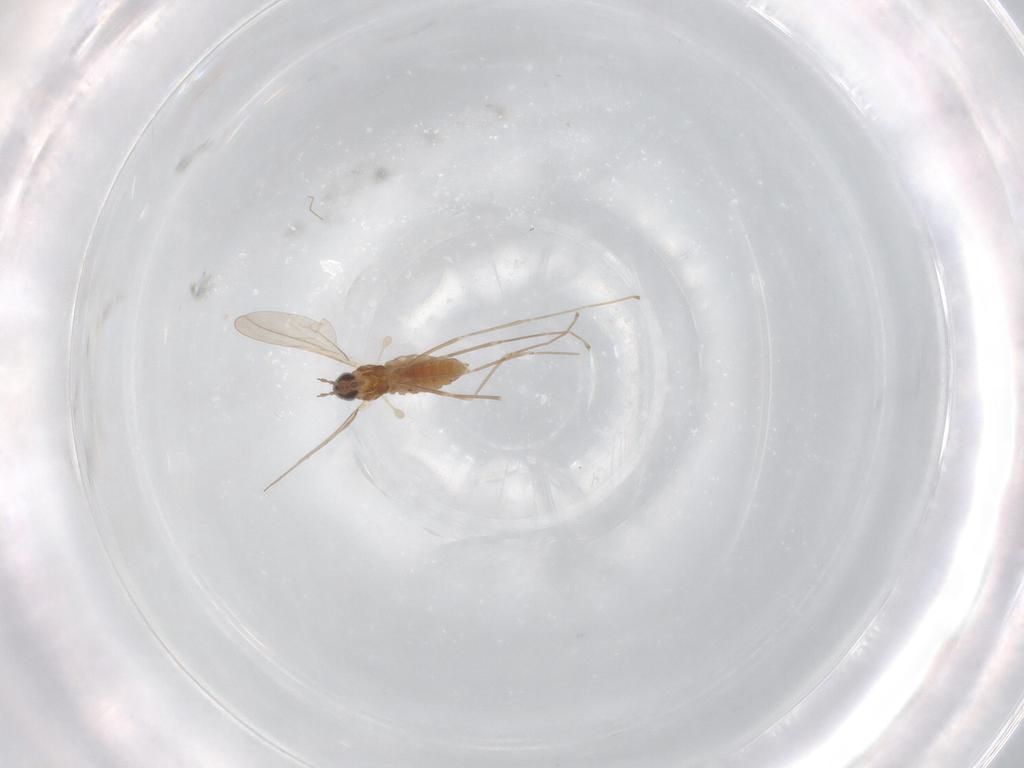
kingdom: Animalia
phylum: Arthropoda
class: Insecta
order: Diptera
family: Cecidomyiidae
